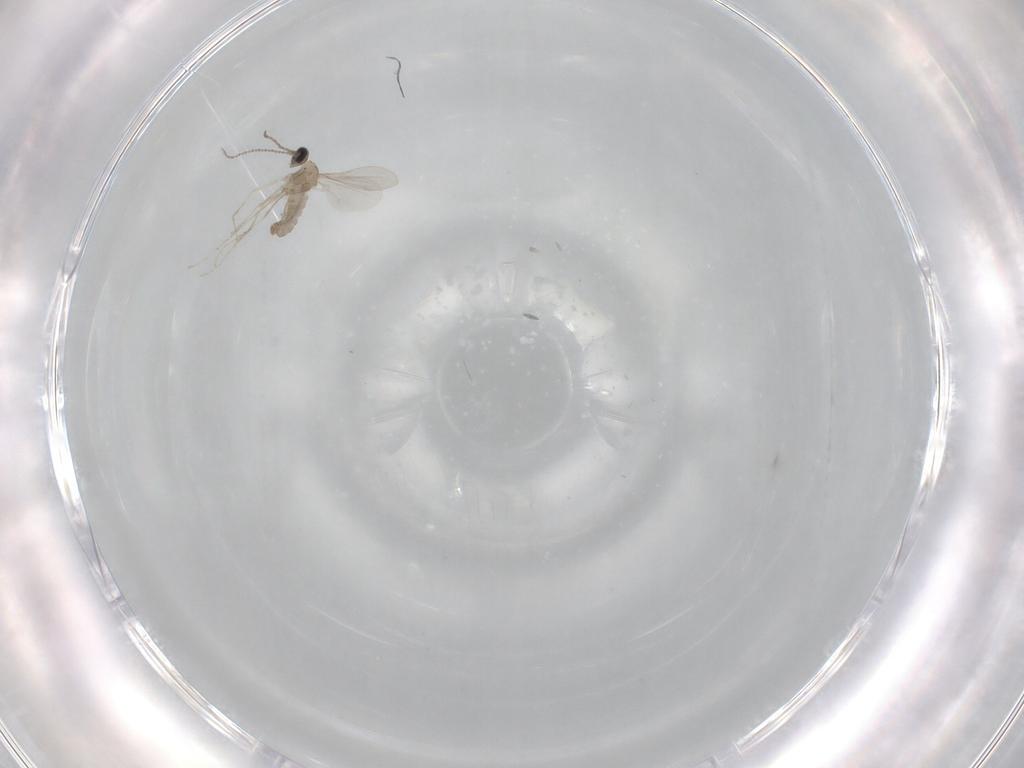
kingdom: Animalia
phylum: Arthropoda
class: Insecta
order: Diptera
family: Cecidomyiidae
